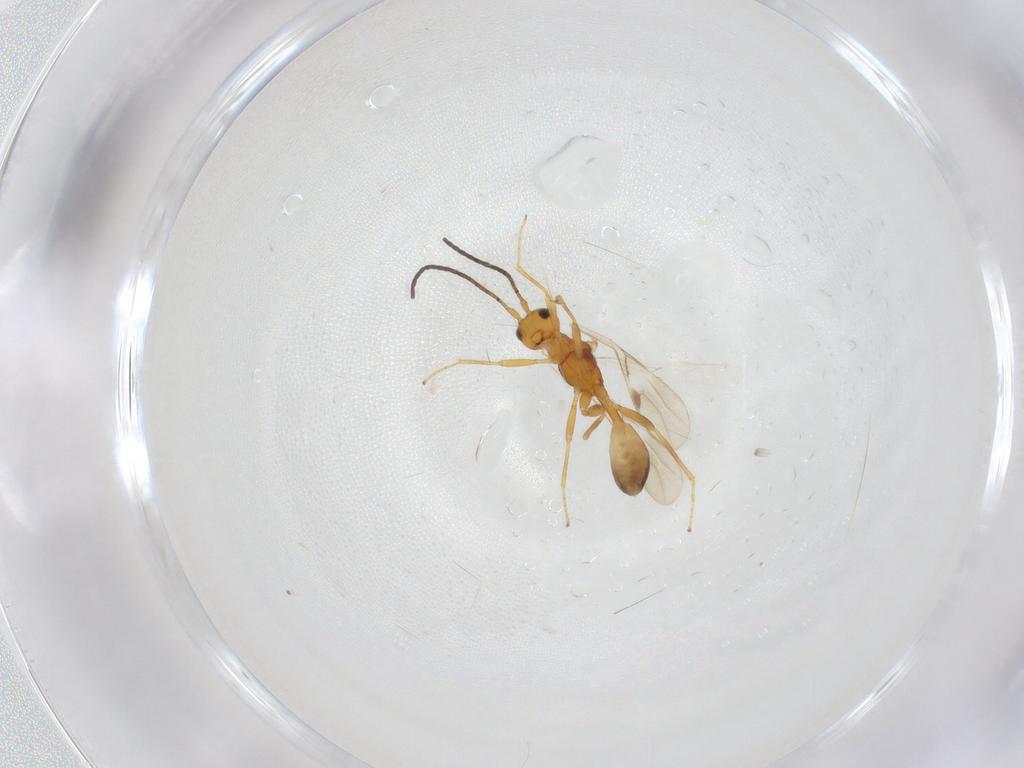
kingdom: Animalia
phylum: Arthropoda
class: Insecta
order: Hymenoptera
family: Braconidae
